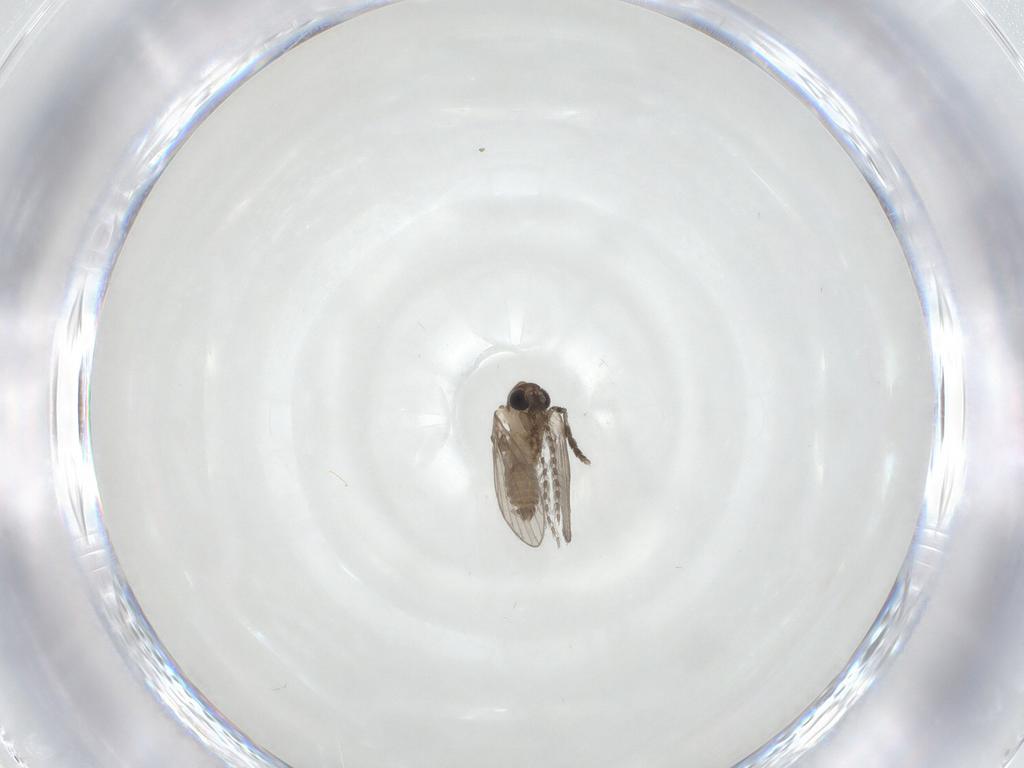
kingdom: Animalia
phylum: Arthropoda
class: Insecta
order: Diptera
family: Psychodidae
